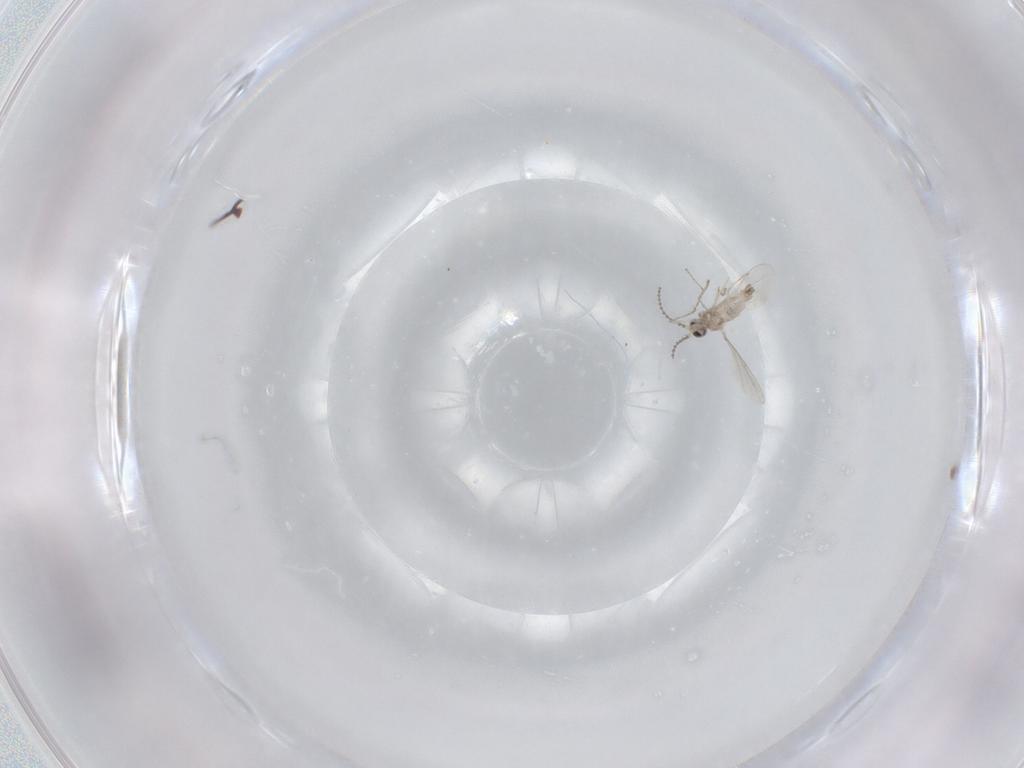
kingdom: Animalia
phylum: Arthropoda
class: Insecta
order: Diptera
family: Cecidomyiidae
